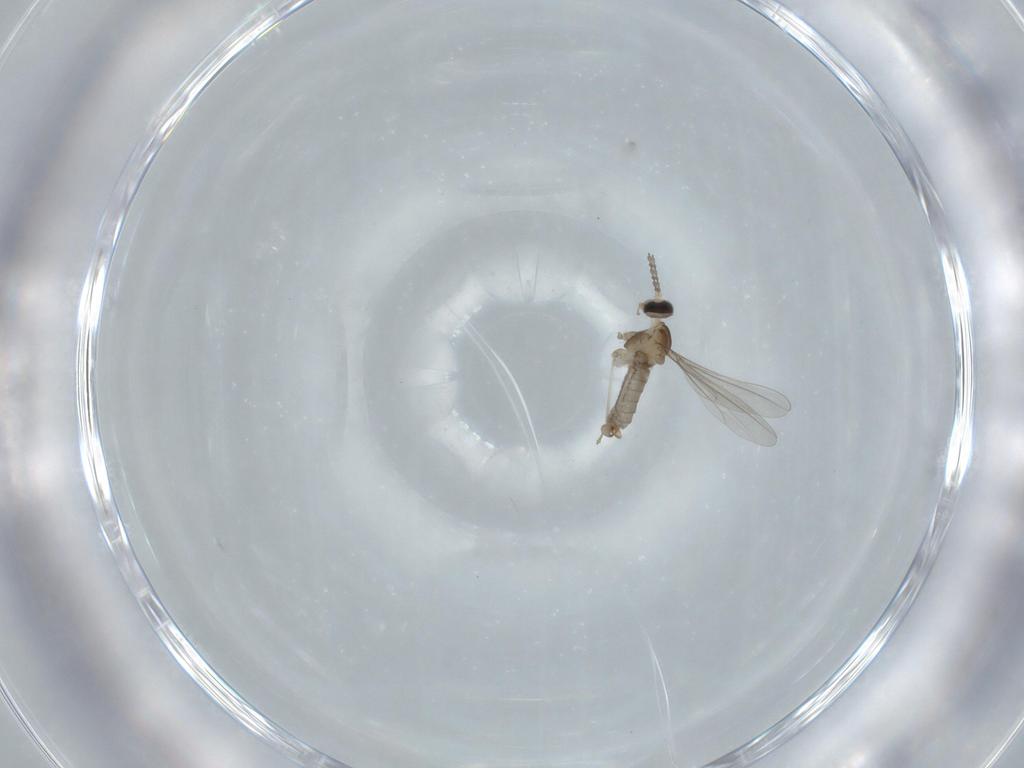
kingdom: Animalia
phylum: Arthropoda
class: Insecta
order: Diptera
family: Cecidomyiidae
